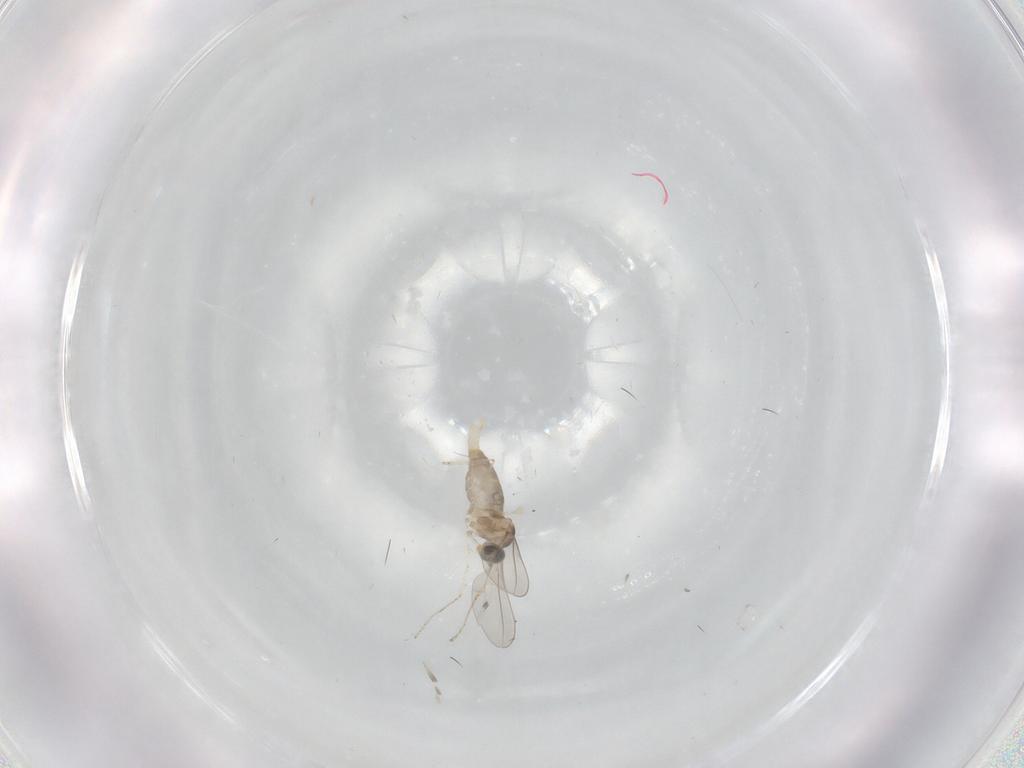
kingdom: Animalia
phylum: Arthropoda
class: Insecta
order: Diptera
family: Tabanidae
